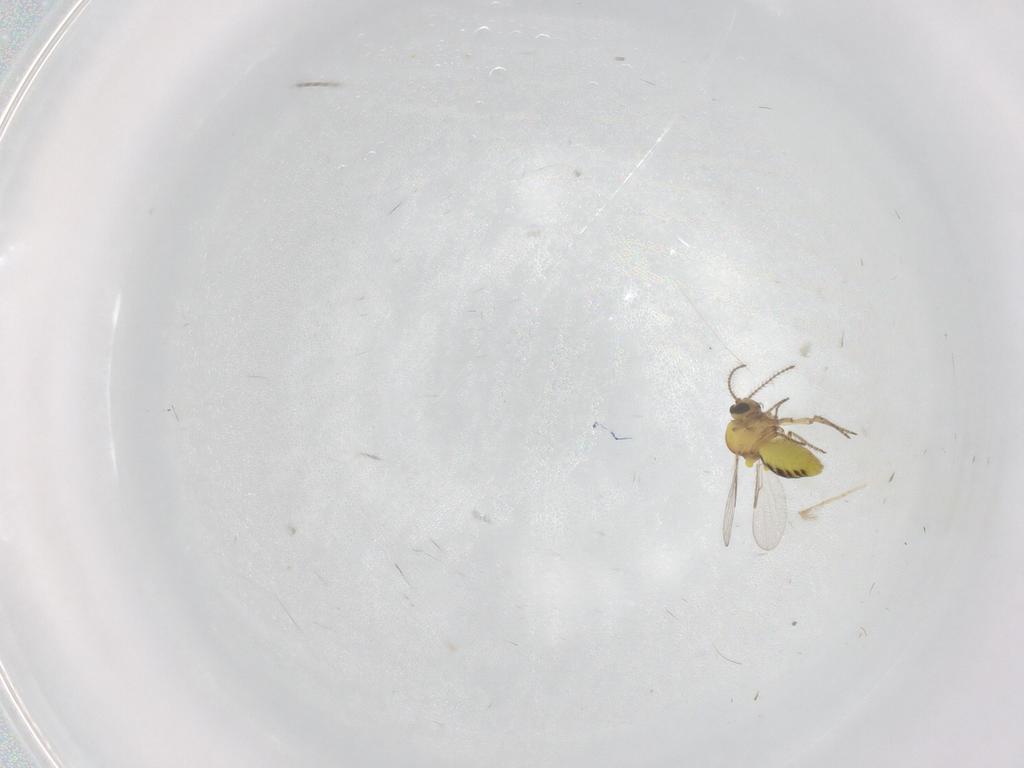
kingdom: Animalia
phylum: Arthropoda
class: Insecta
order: Diptera
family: Ceratopogonidae
